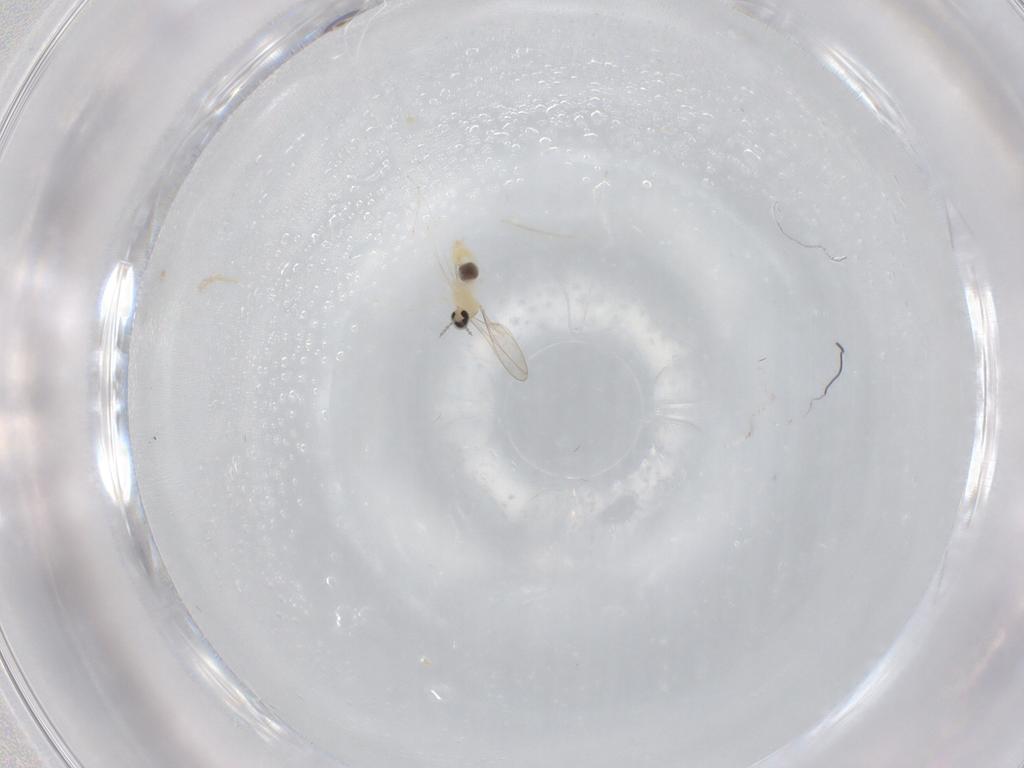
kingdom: Animalia
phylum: Arthropoda
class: Insecta
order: Diptera
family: Cecidomyiidae
